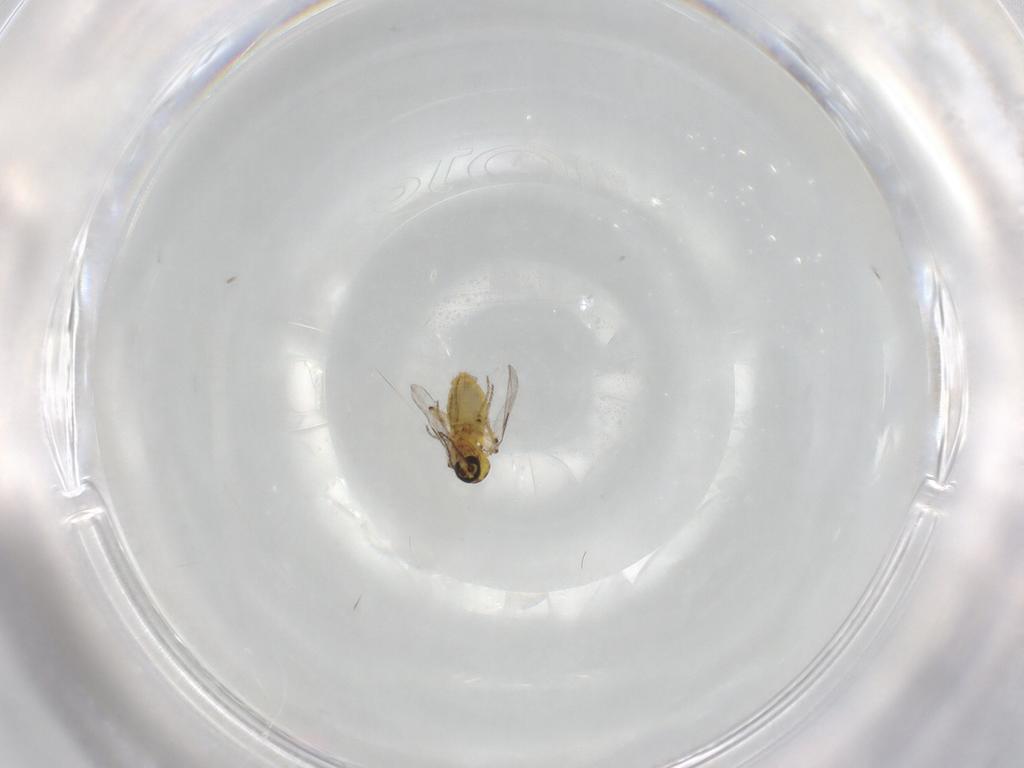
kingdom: Animalia
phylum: Arthropoda
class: Insecta
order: Diptera
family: Ceratopogonidae
